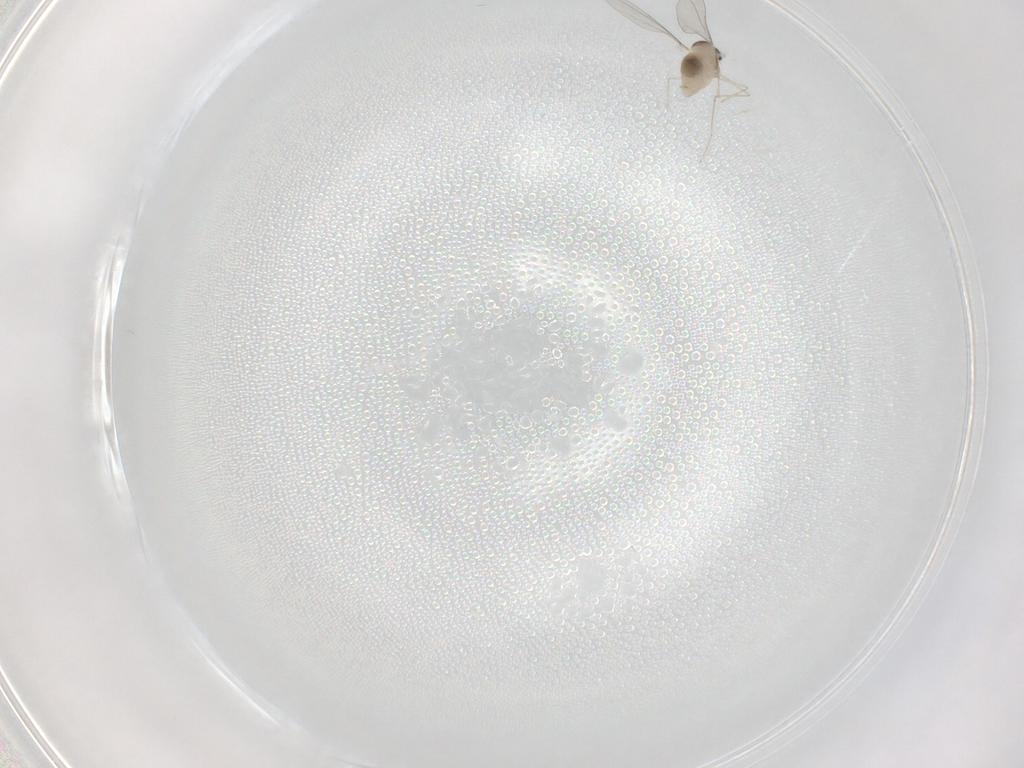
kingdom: Animalia
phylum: Arthropoda
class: Insecta
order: Diptera
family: Cecidomyiidae
